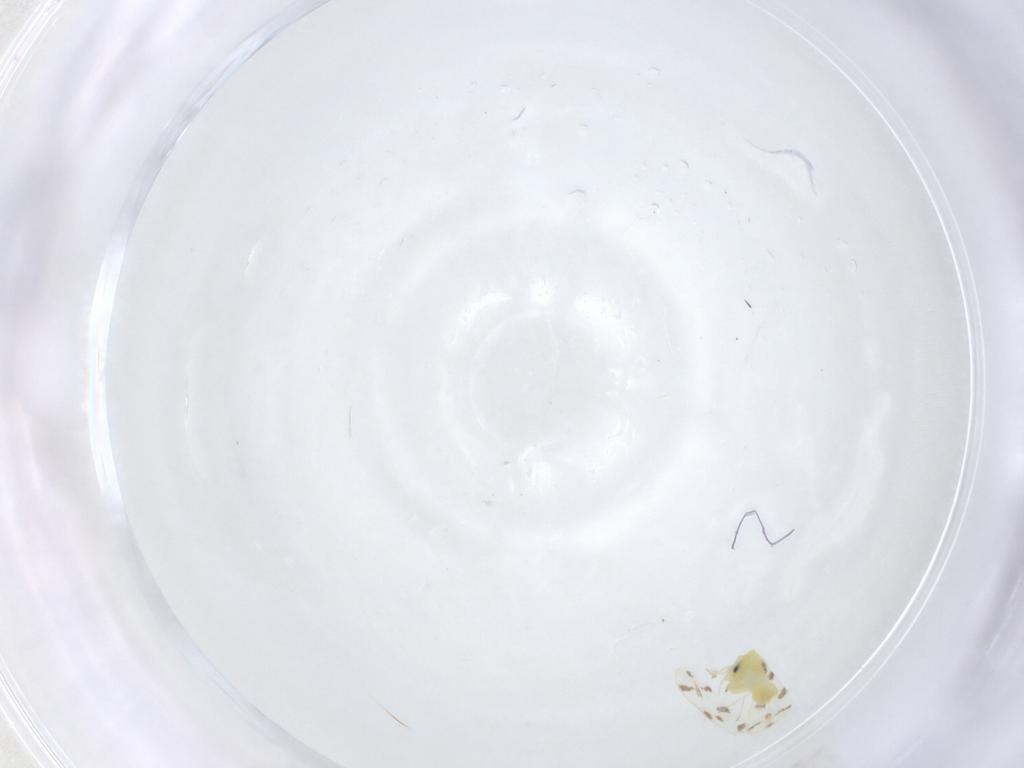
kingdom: Animalia
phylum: Arthropoda
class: Insecta
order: Hemiptera
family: Aleyrodidae
